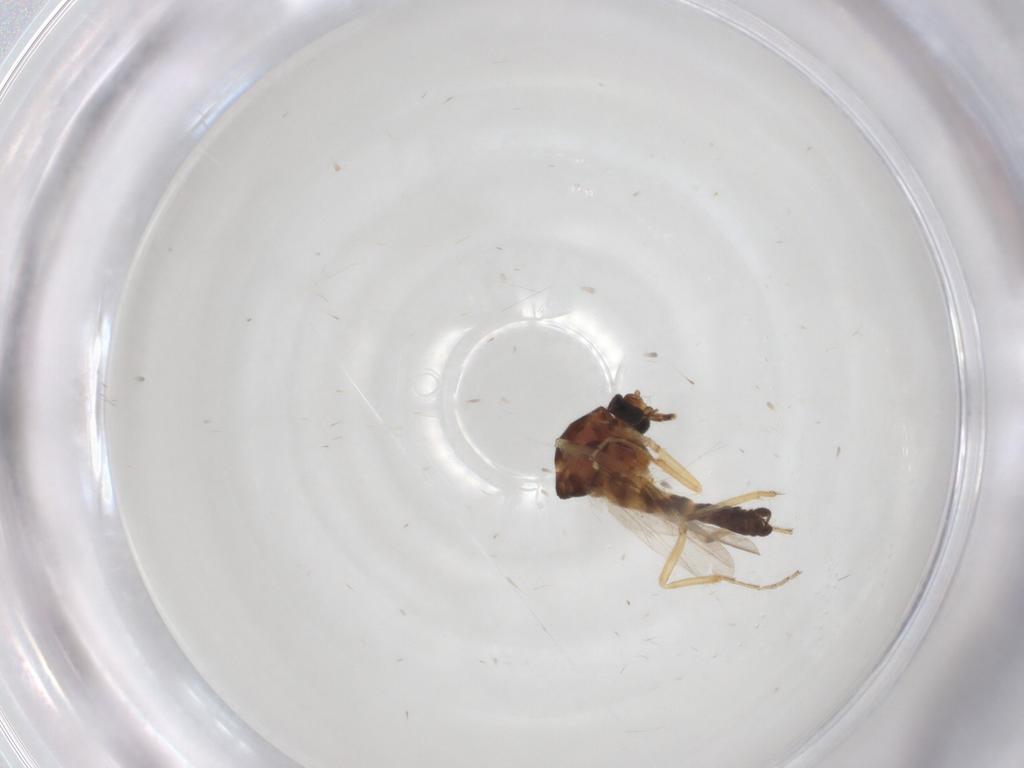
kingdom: Animalia
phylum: Arthropoda
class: Insecta
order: Diptera
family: Ceratopogonidae
